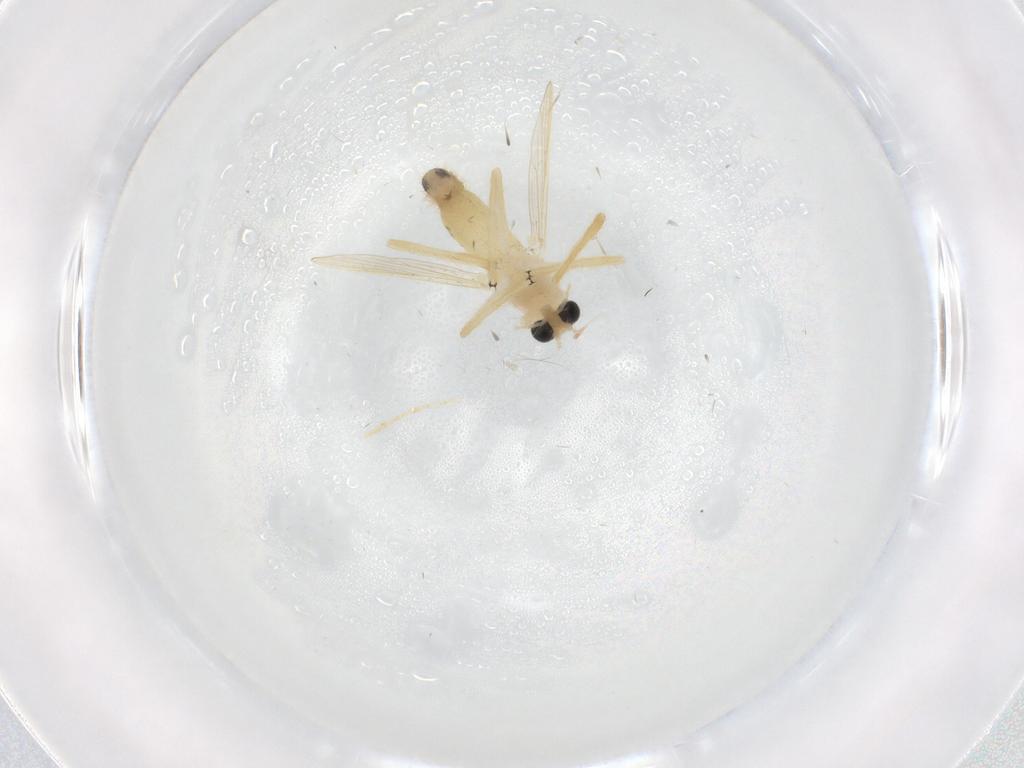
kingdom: Animalia
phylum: Arthropoda
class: Insecta
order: Diptera
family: Chironomidae
